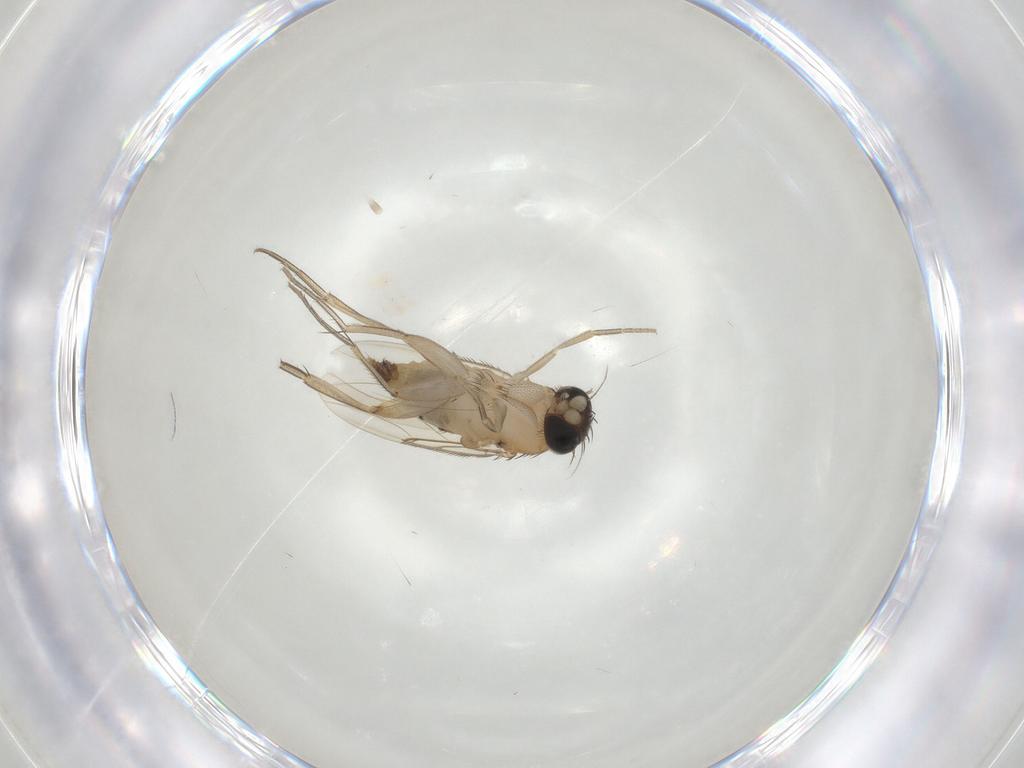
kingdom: Animalia
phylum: Arthropoda
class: Insecta
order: Diptera
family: Phoridae
